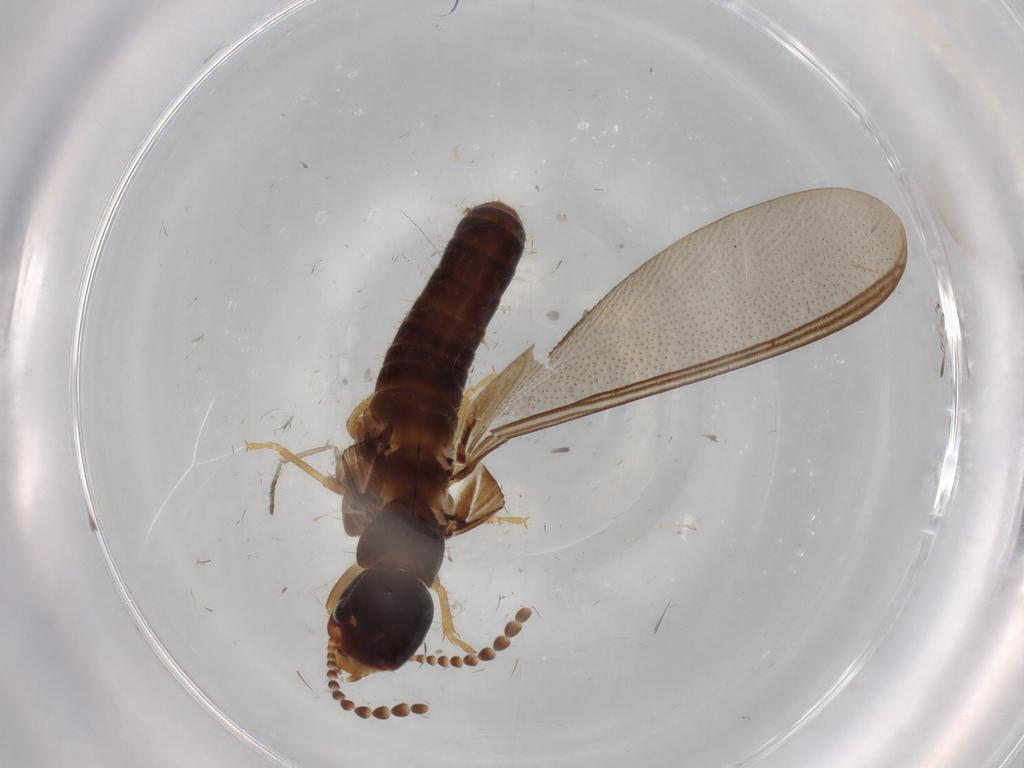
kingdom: Animalia
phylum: Arthropoda
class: Insecta
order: Blattodea
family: Kalotermitidae
